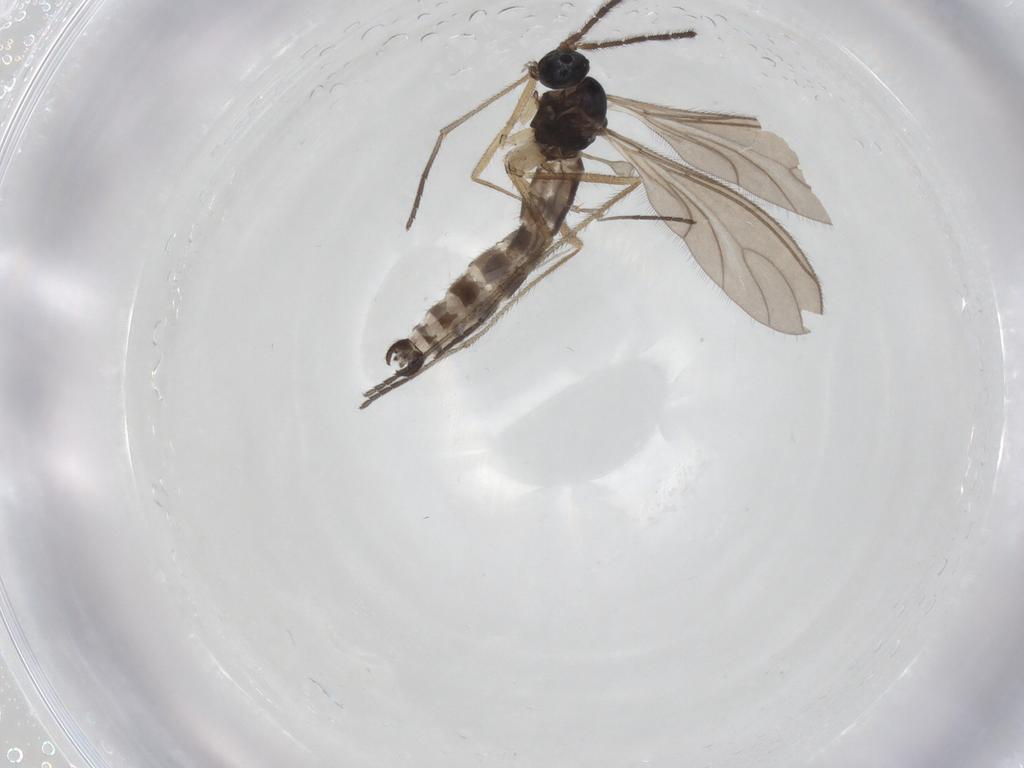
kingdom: Animalia
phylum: Arthropoda
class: Insecta
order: Diptera
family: Sciaridae
